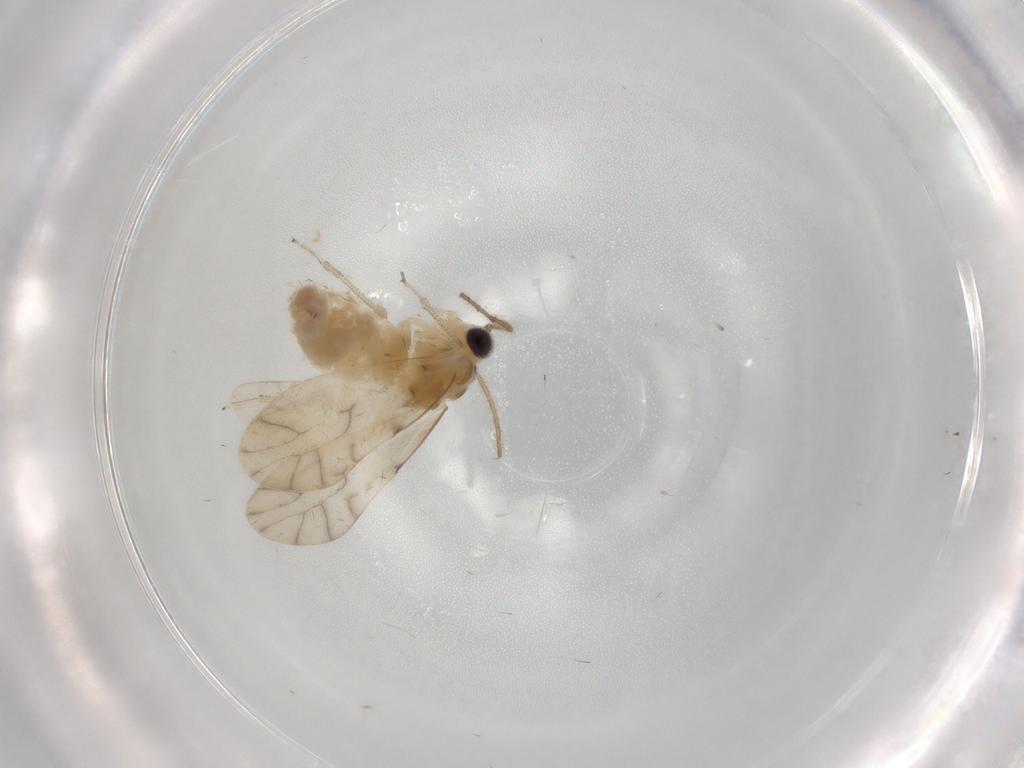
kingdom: Animalia
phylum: Arthropoda
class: Insecta
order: Psocodea
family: Caeciliusidae
